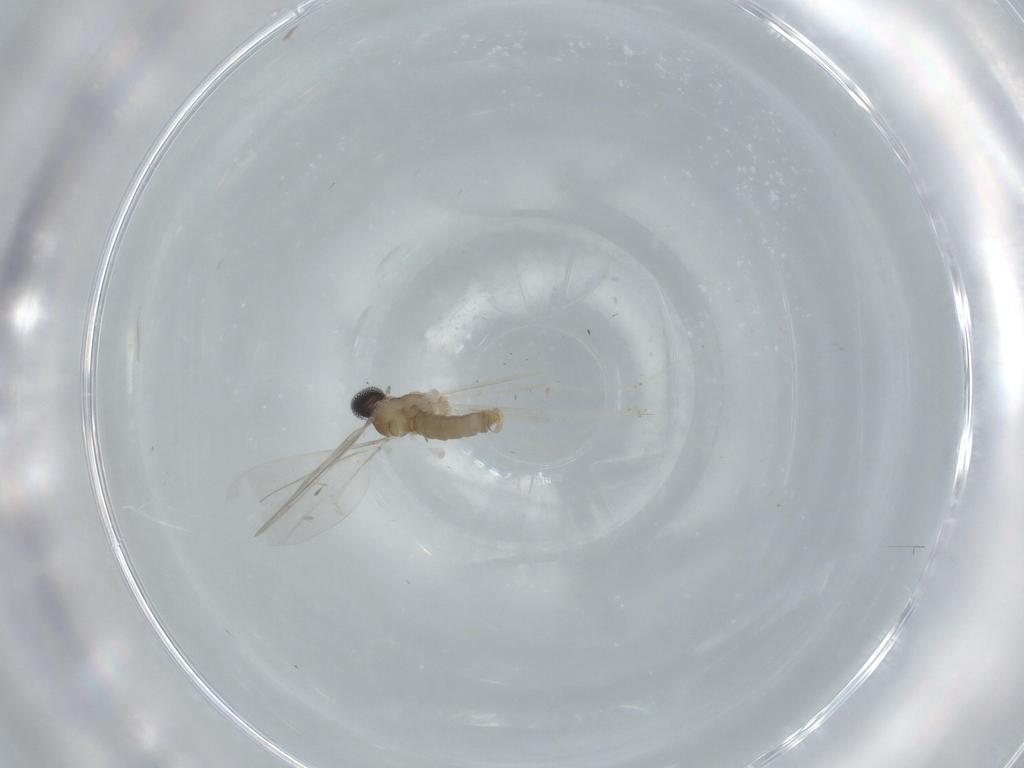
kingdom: Animalia
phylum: Arthropoda
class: Insecta
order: Diptera
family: Cecidomyiidae
